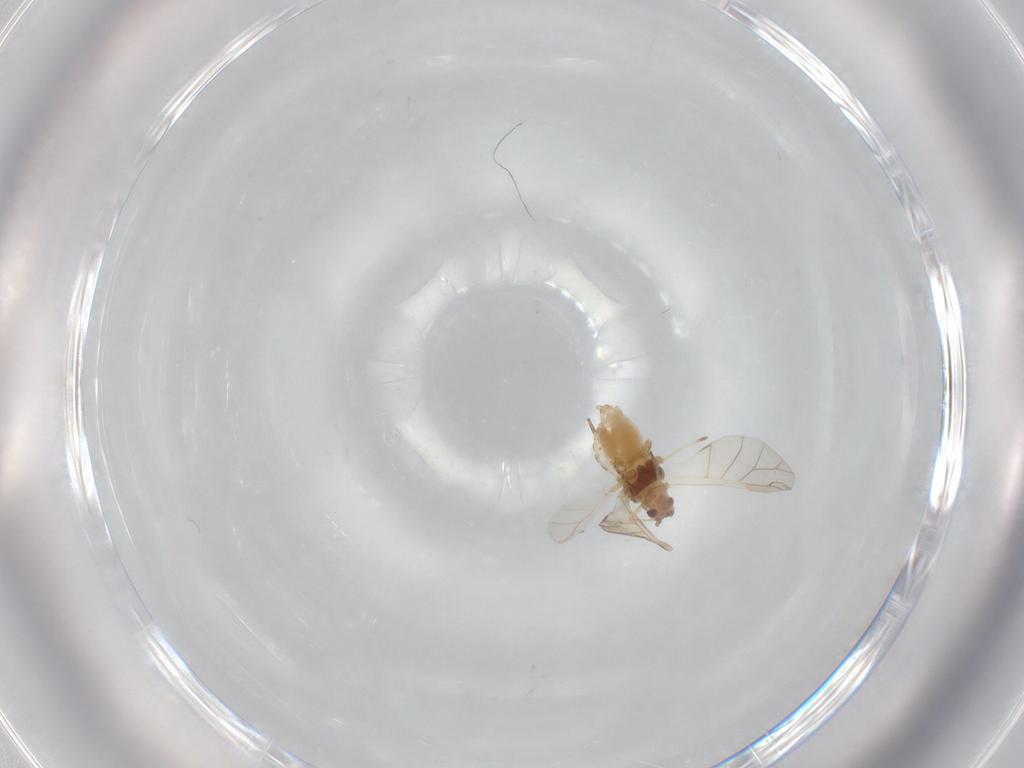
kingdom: Animalia
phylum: Arthropoda
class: Insecta
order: Hemiptera
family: Aphididae
